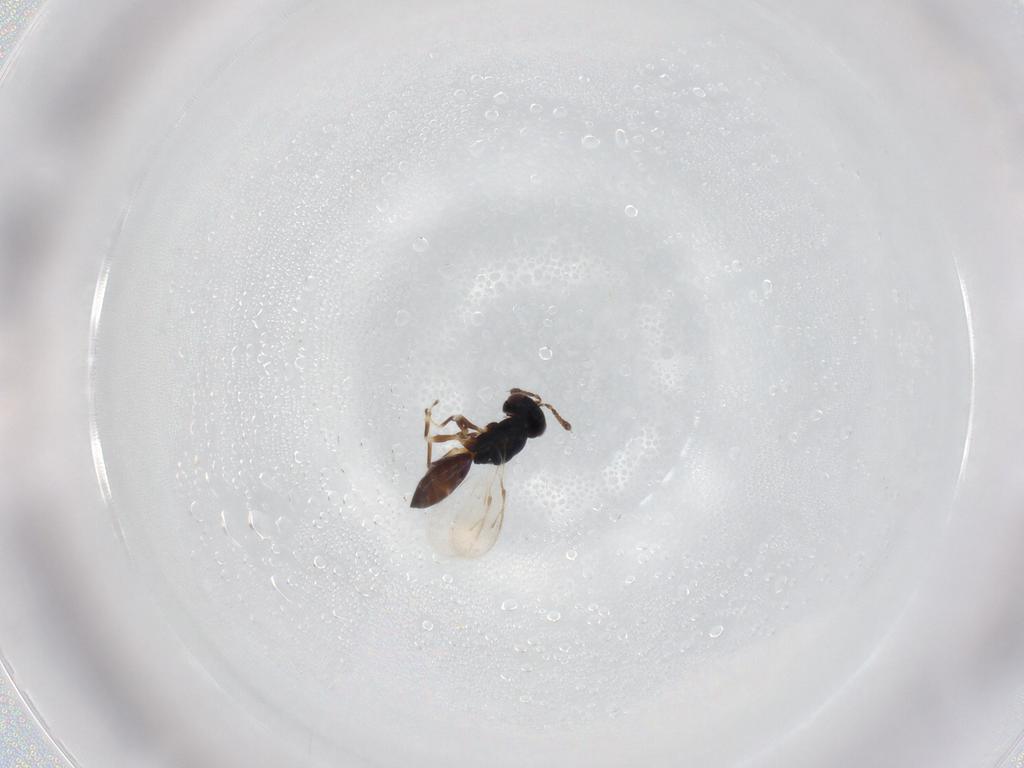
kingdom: Animalia
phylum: Arthropoda
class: Insecta
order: Hymenoptera
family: Pteromalidae
